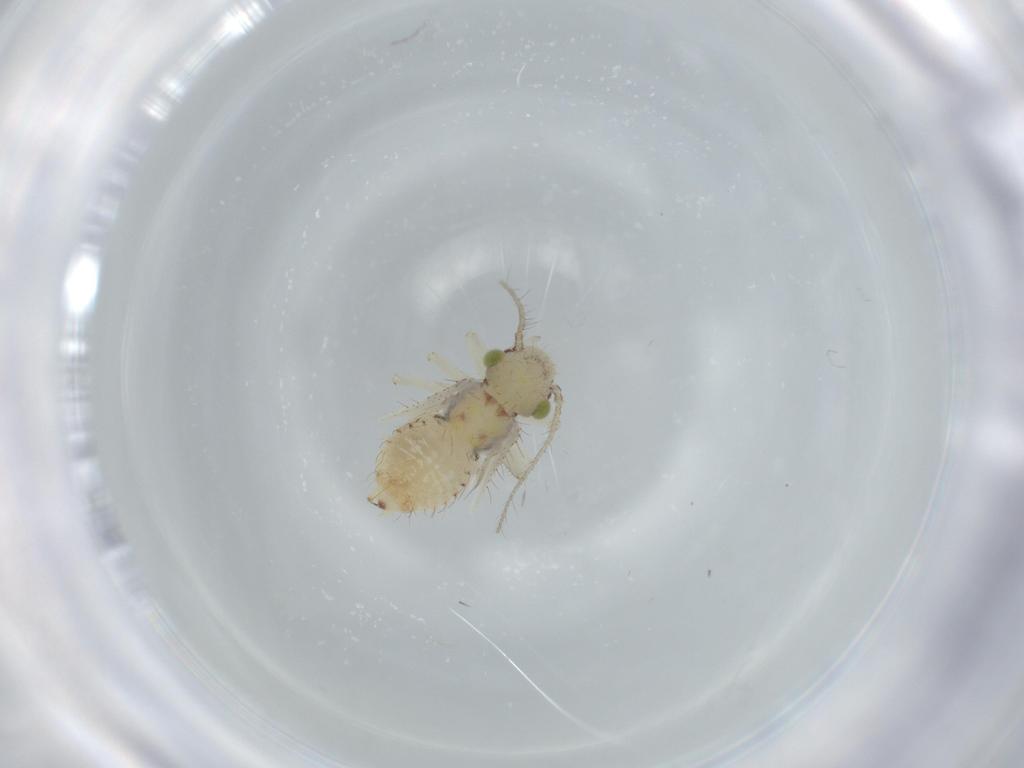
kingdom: Animalia
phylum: Arthropoda
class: Insecta
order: Psocodea
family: Pseudocaeciliidae
